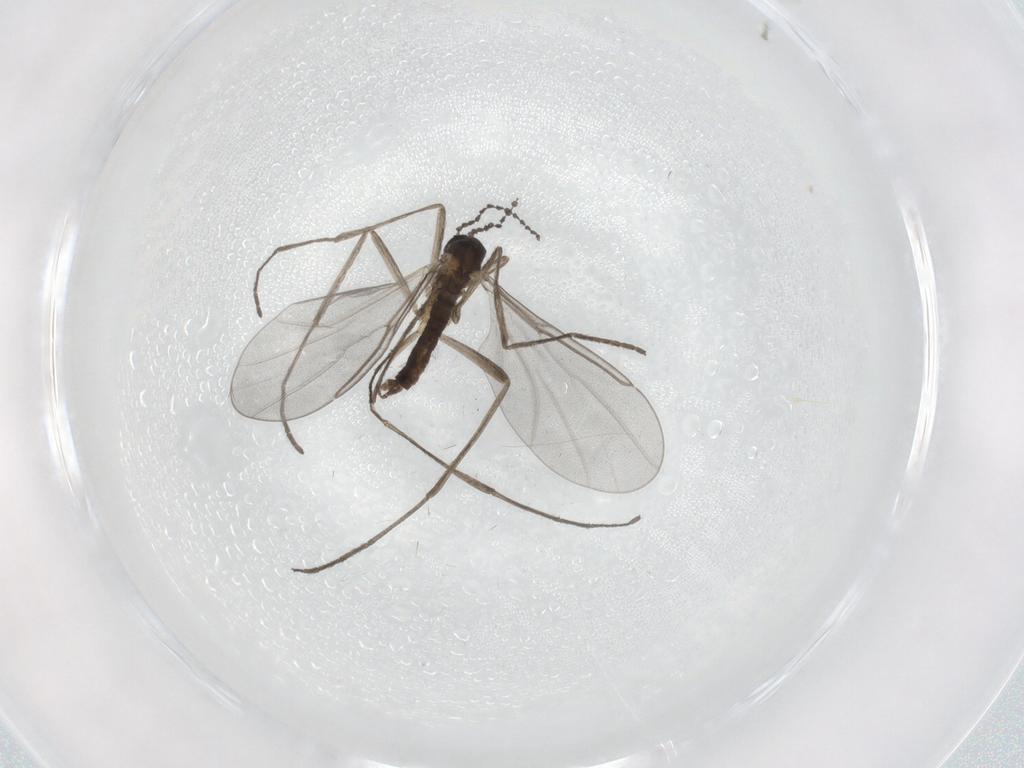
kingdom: Animalia
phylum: Arthropoda
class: Insecta
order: Diptera
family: Cecidomyiidae
